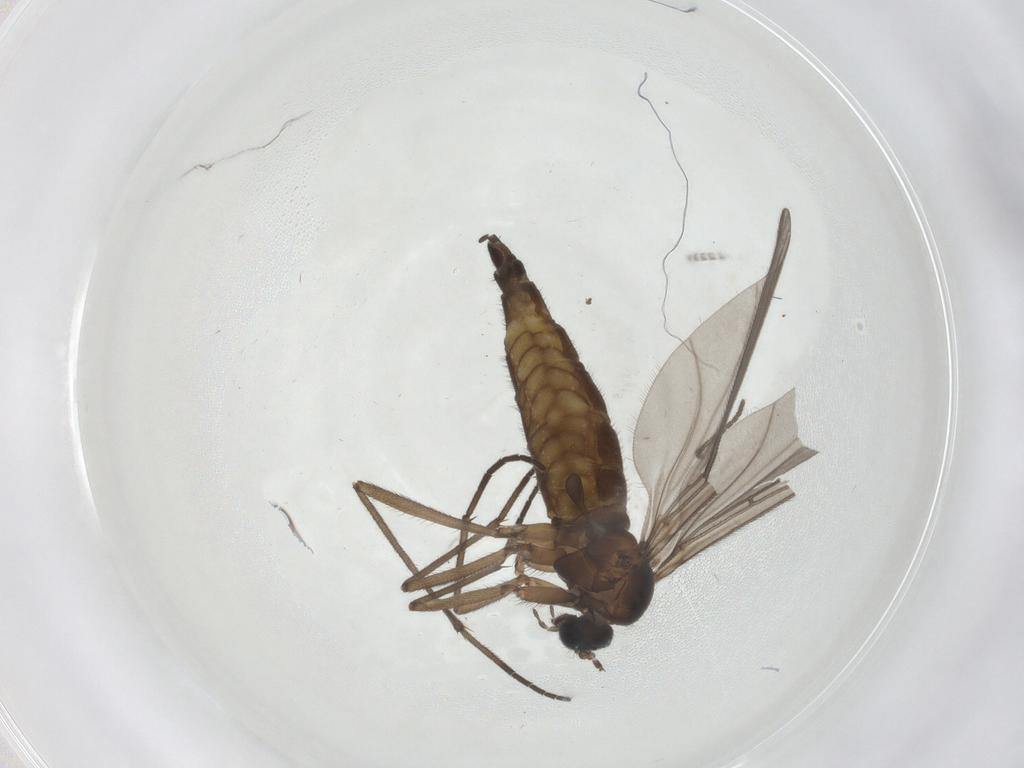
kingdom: Animalia
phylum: Arthropoda
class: Insecta
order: Diptera
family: Sciaridae
